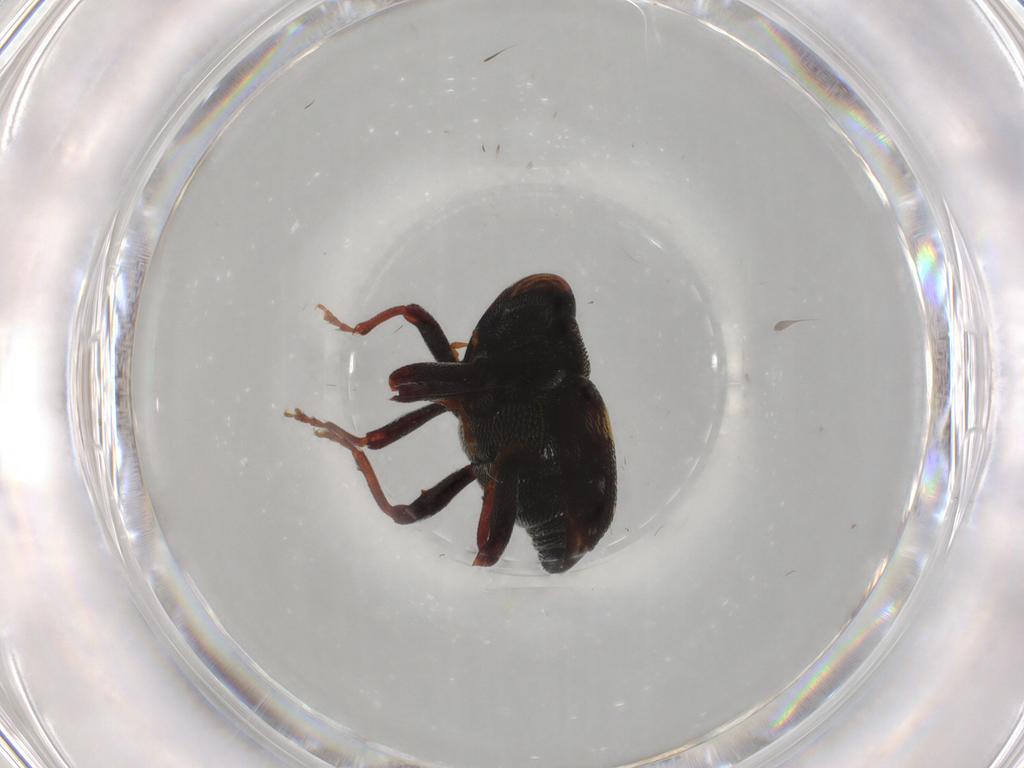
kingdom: Animalia
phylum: Arthropoda
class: Insecta
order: Coleoptera
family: Curculionidae
